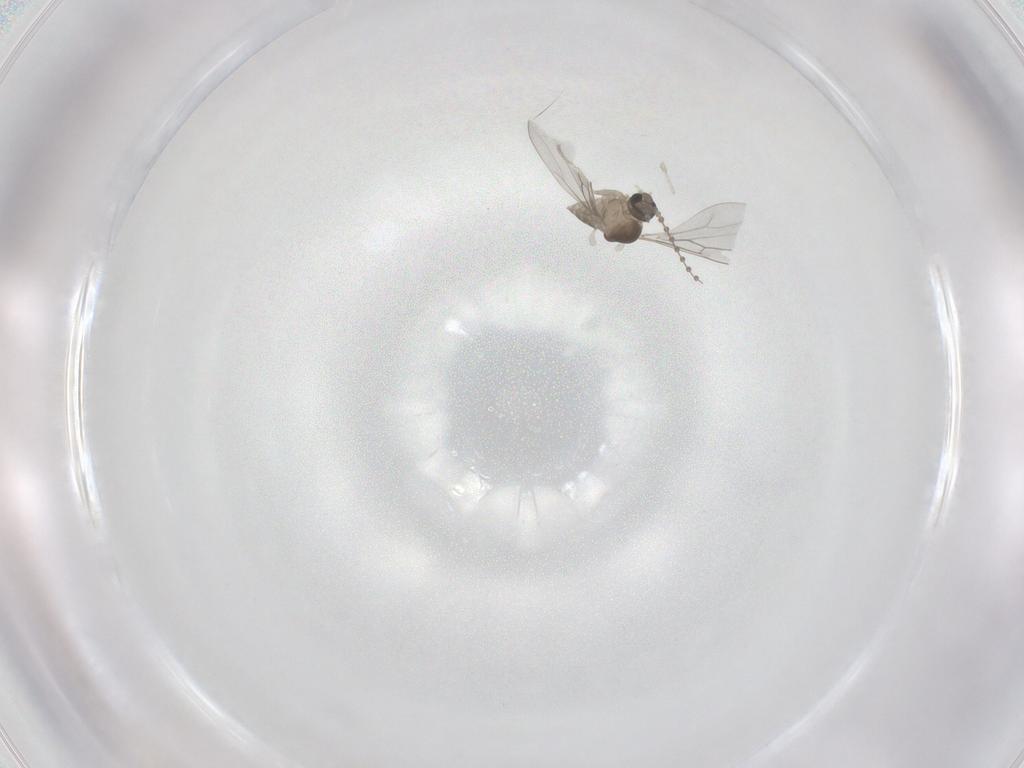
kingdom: Animalia
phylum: Arthropoda
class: Insecta
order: Diptera
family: Cecidomyiidae
